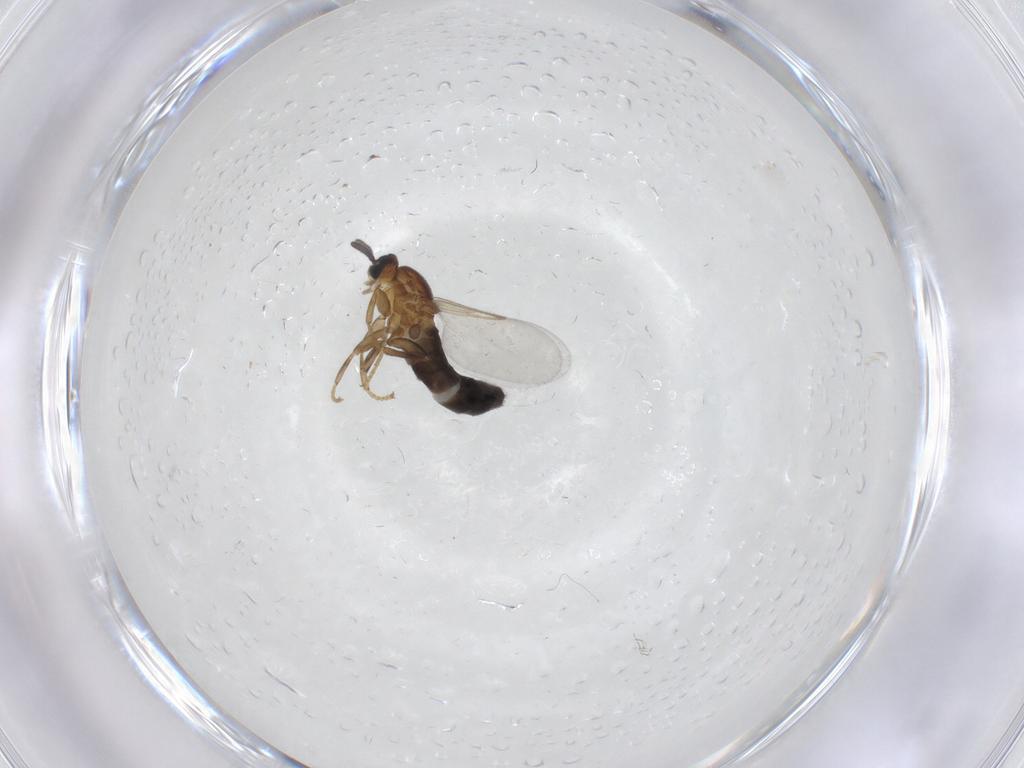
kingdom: Animalia
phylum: Arthropoda
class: Insecta
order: Diptera
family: Scatopsidae
